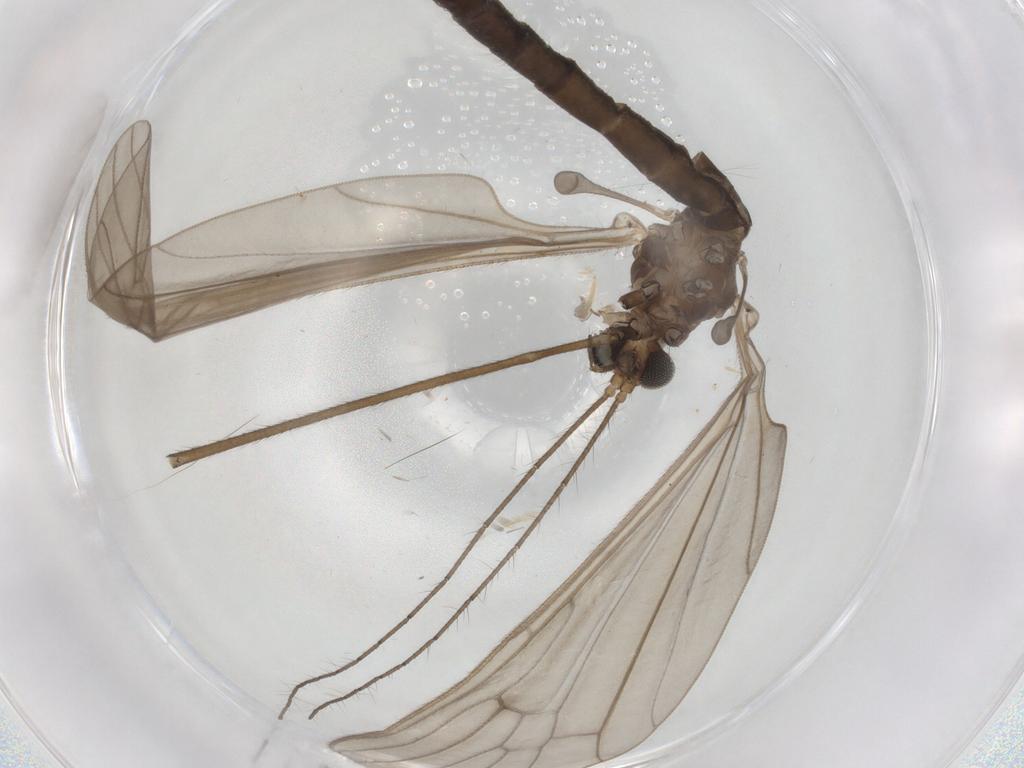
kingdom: Animalia
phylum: Arthropoda
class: Insecta
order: Diptera
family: Limoniidae
